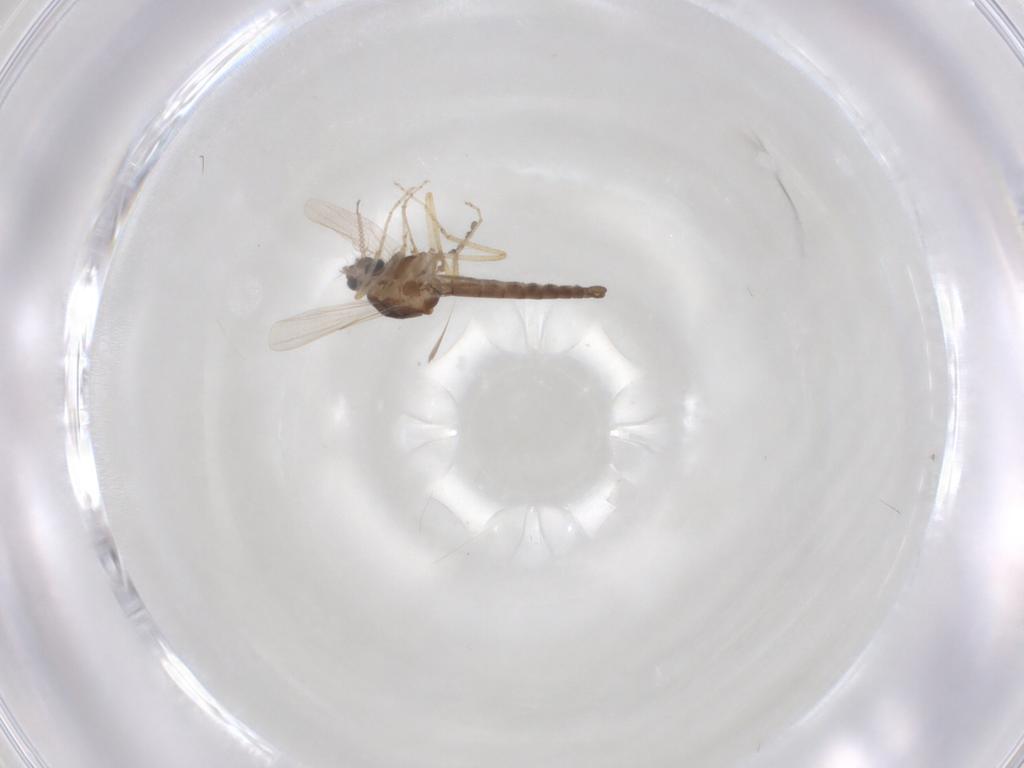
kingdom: Animalia
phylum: Arthropoda
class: Insecta
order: Diptera
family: Ceratopogonidae
